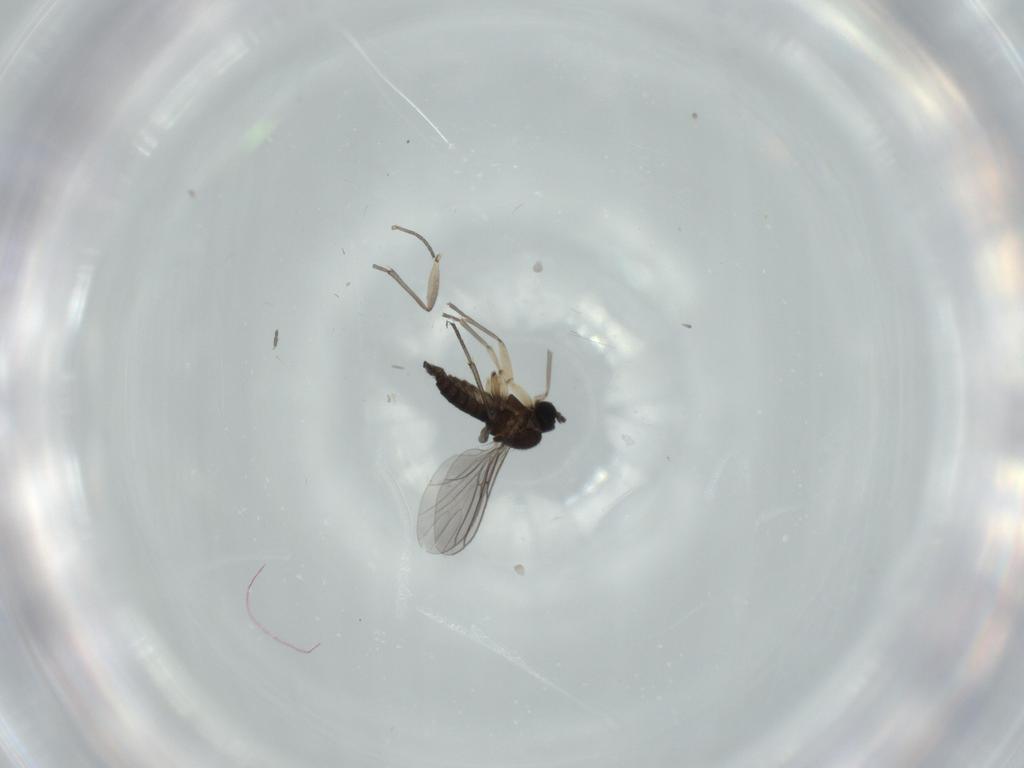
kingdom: Animalia
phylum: Arthropoda
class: Insecta
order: Diptera
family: Sciaridae
